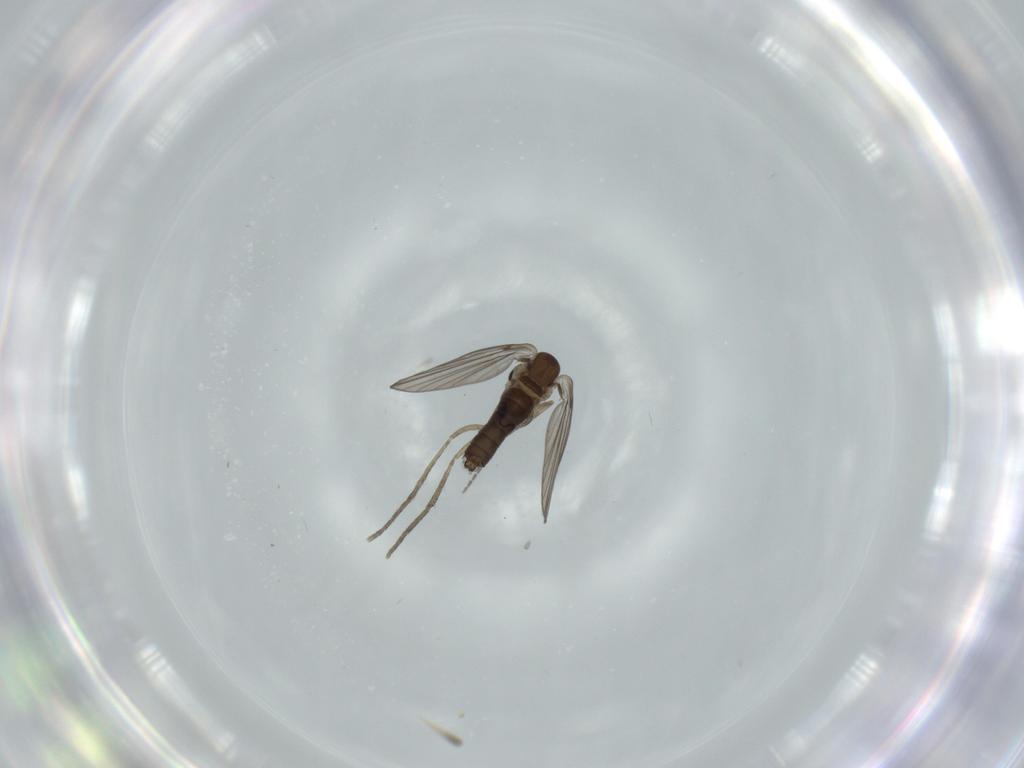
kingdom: Animalia
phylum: Arthropoda
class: Insecta
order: Diptera
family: Psychodidae
